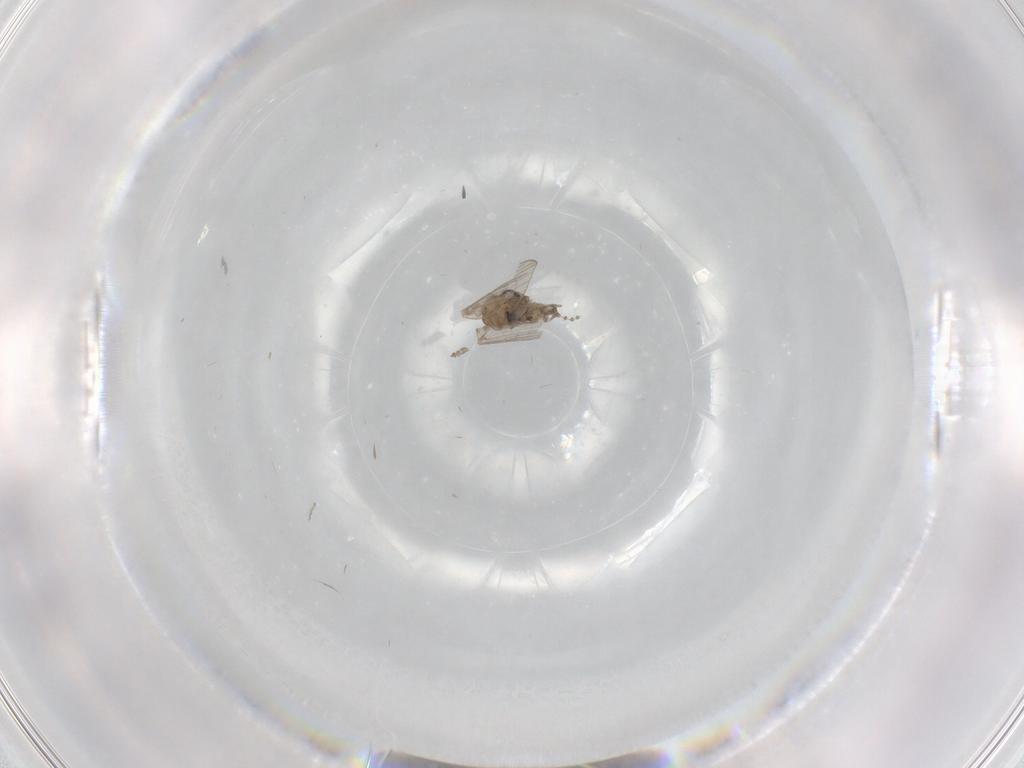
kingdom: Animalia
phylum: Arthropoda
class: Insecta
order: Diptera
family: Psychodidae
